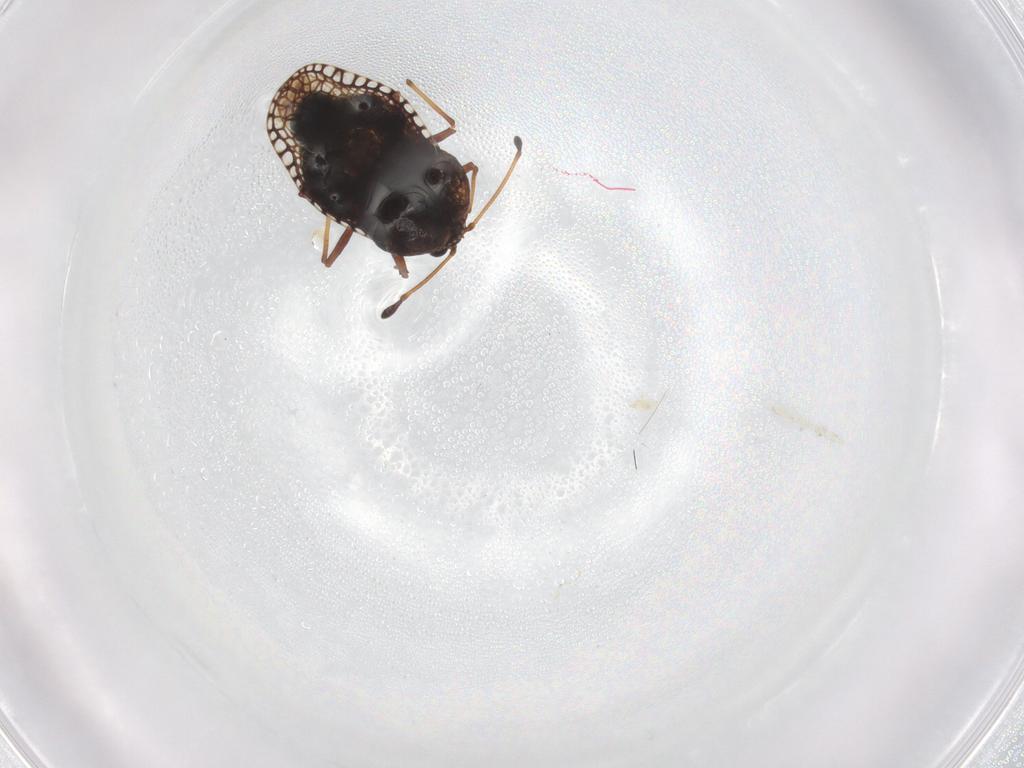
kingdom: Animalia
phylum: Arthropoda
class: Insecta
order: Hemiptera
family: Tingidae
